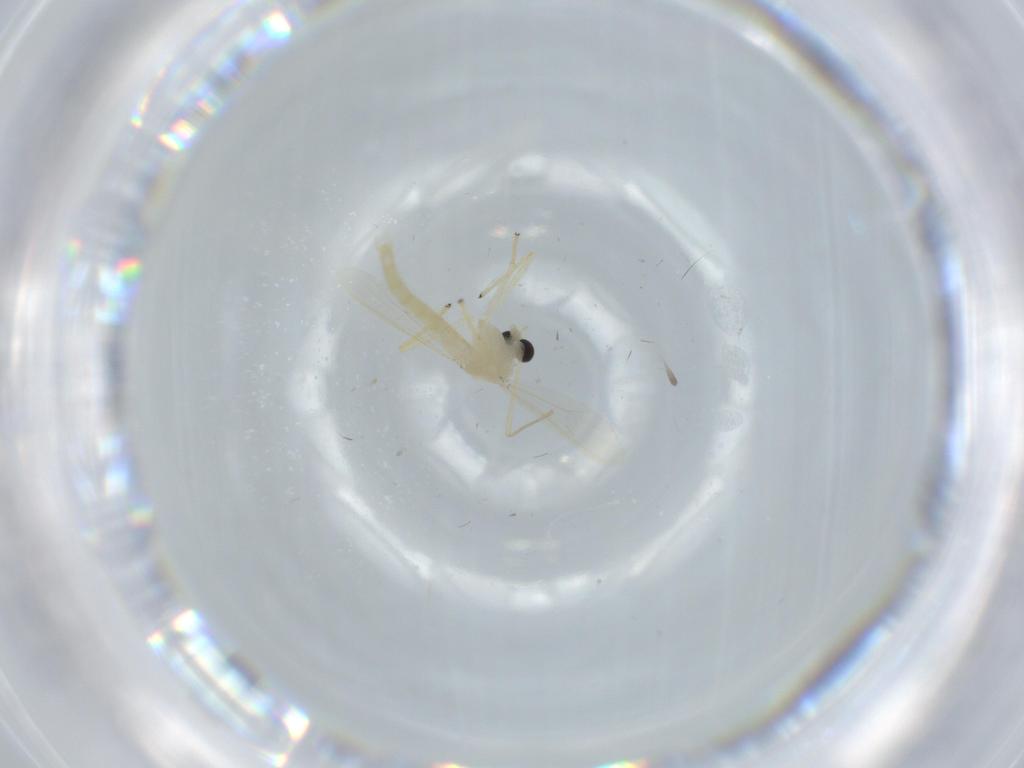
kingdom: Animalia
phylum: Arthropoda
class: Insecta
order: Diptera
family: Chironomidae
